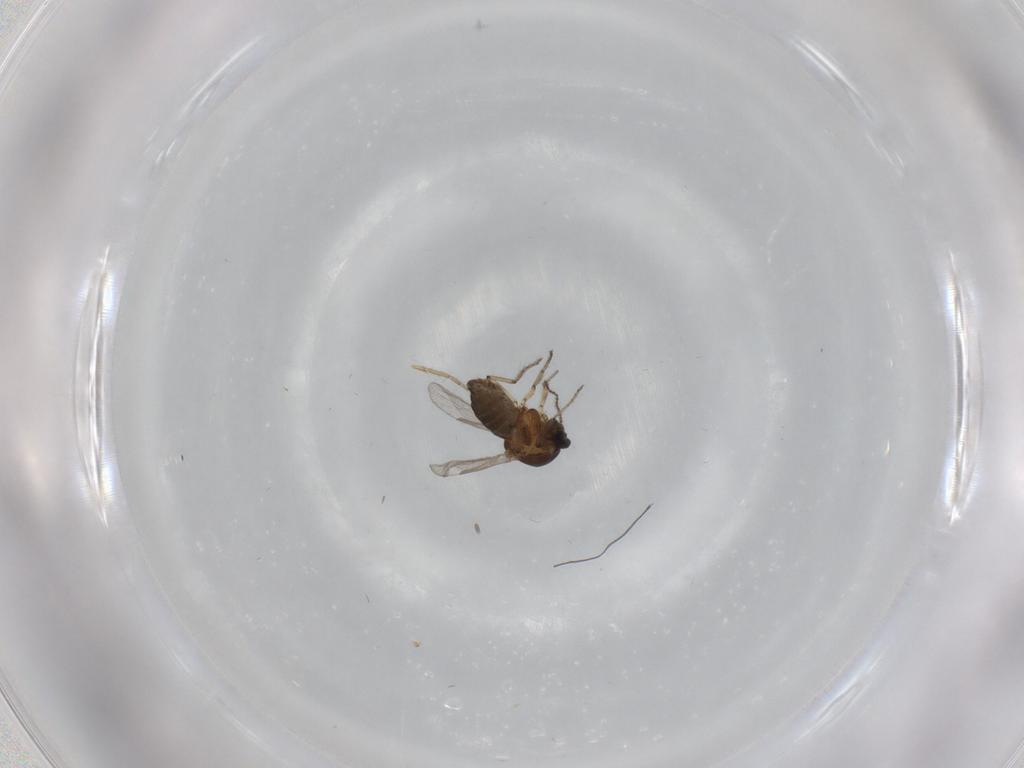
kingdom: Animalia
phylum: Arthropoda
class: Insecta
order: Diptera
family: Ceratopogonidae
